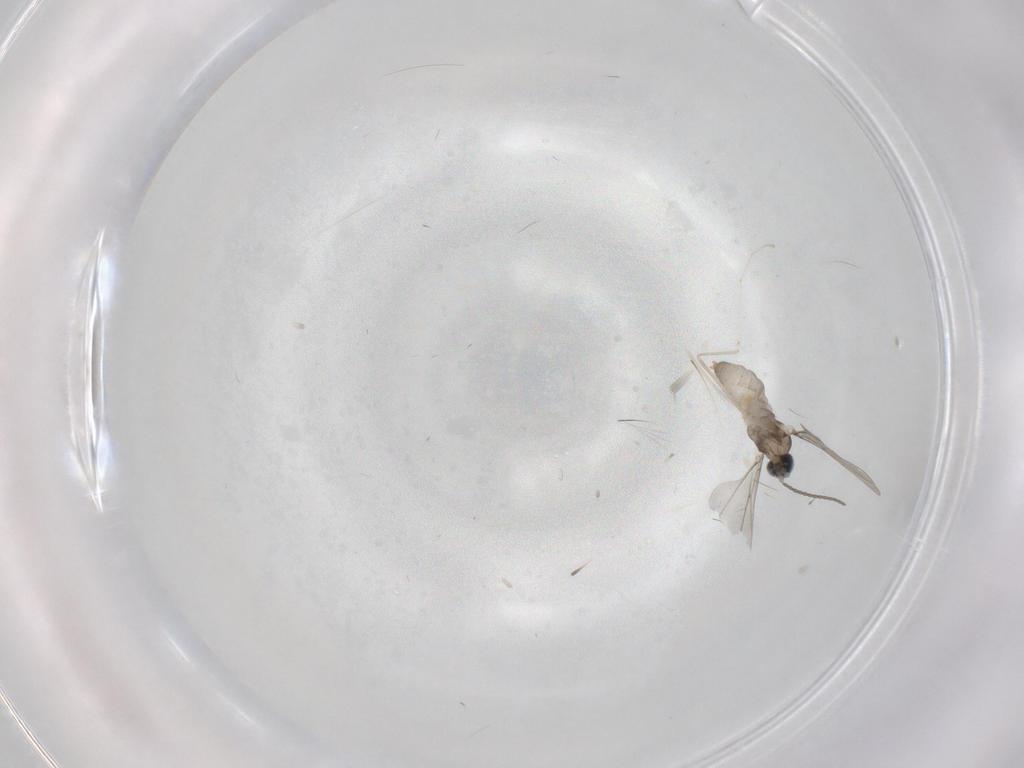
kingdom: Animalia
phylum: Arthropoda
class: Insecta
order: Diptera
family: Cecidomyiidae
